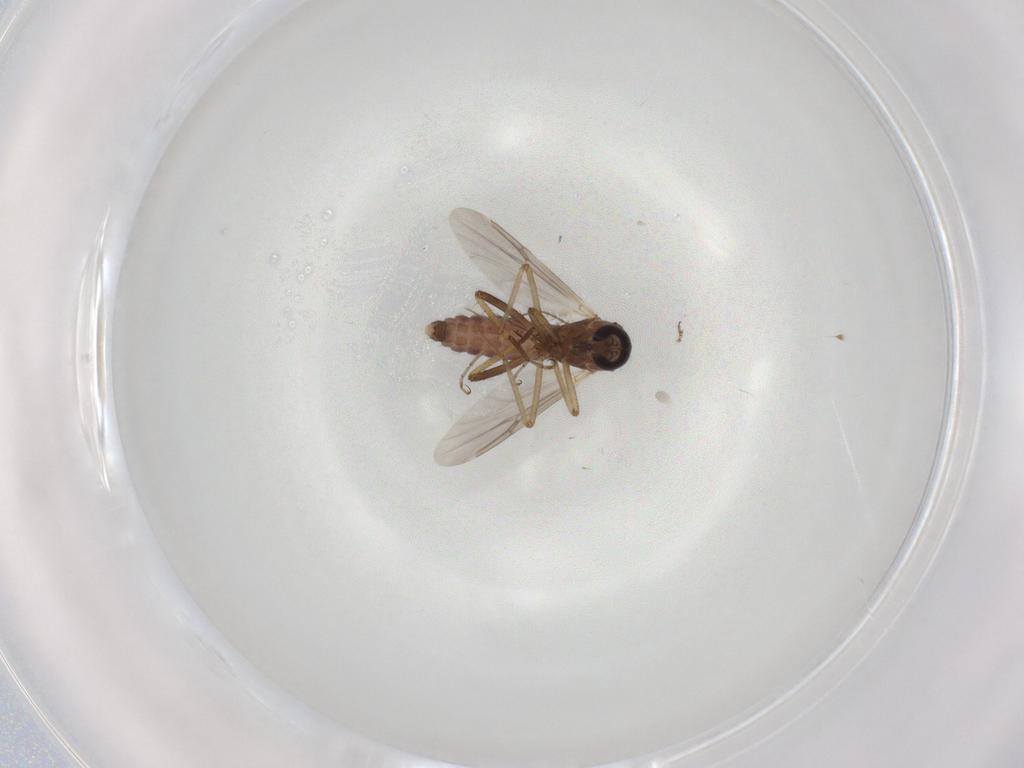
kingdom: Animalia
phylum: Arthropoda
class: Insecta
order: Diptera
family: Ceratopogonidae
